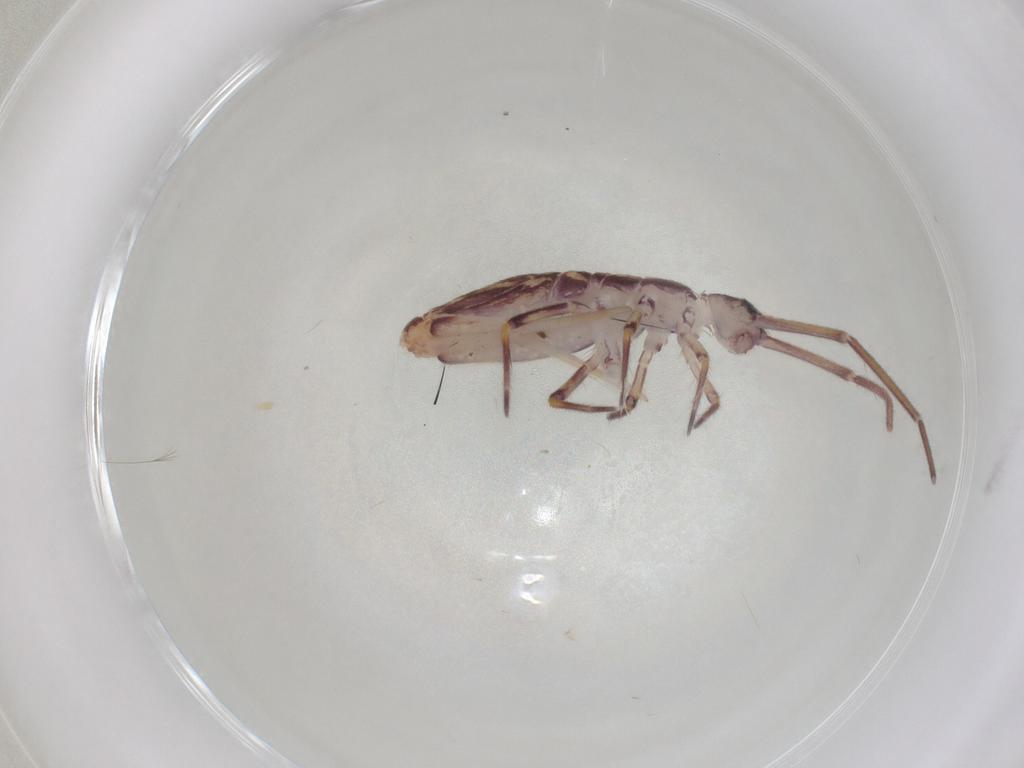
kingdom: Animalia
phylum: Arthropoda
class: Collembola
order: Entomobryomorpha
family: Entomobryidae
